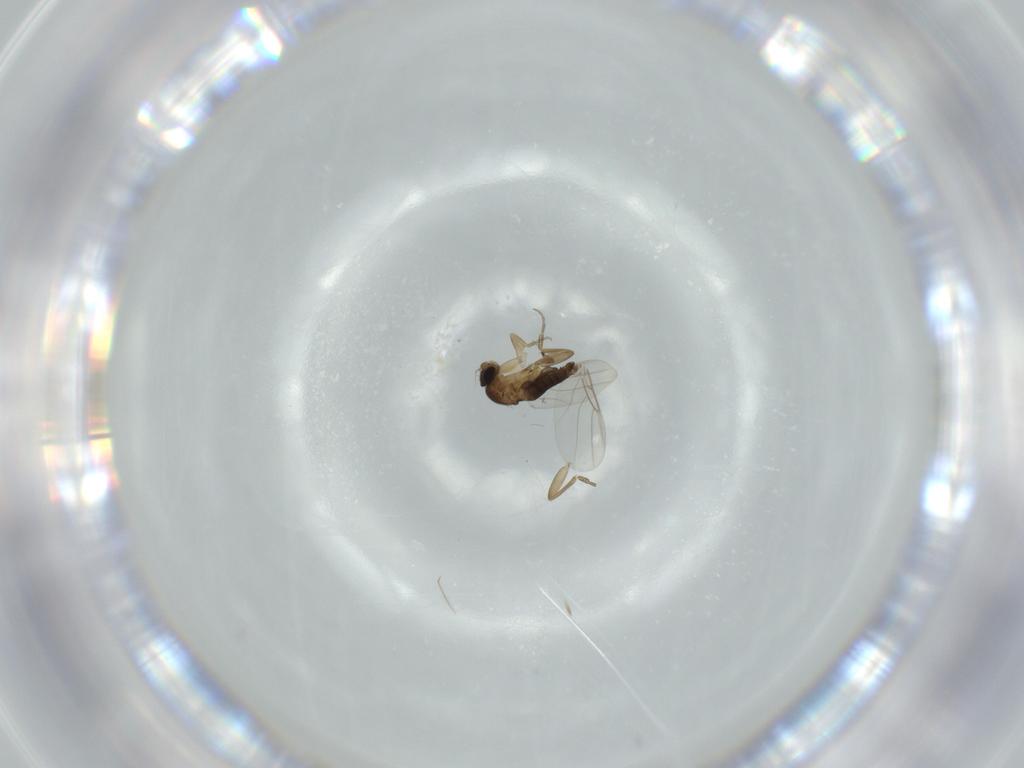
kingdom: Animalia
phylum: Arthropoda
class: Insecta
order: Diptera
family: Phoridae
